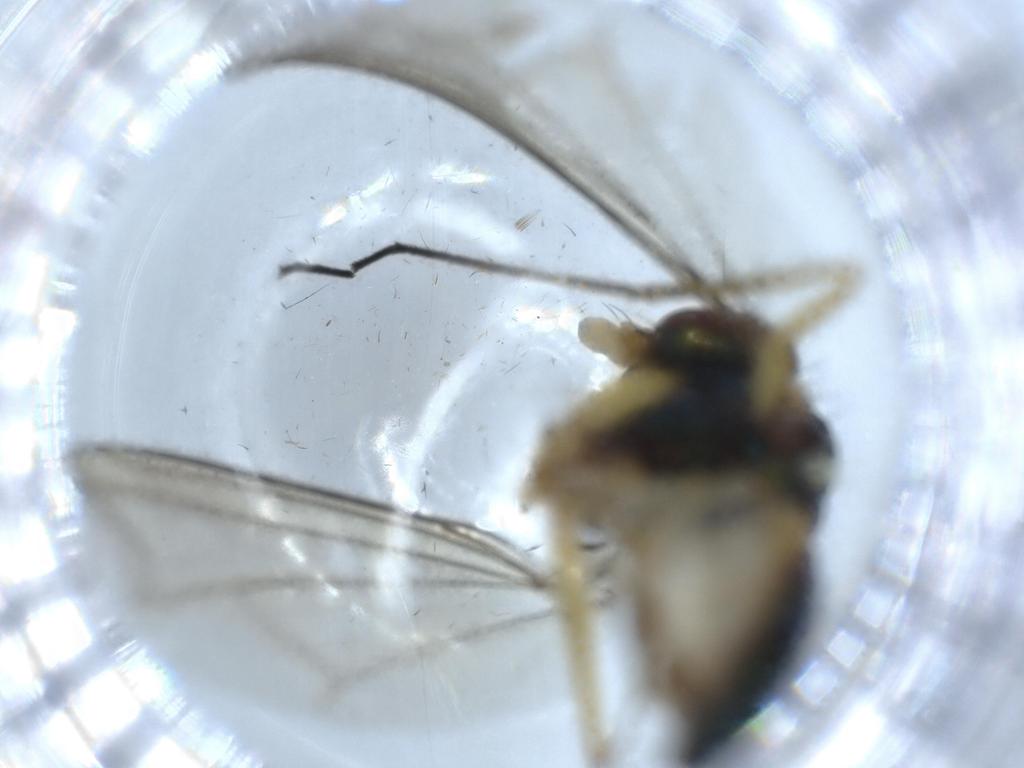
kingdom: Animalia
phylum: Arthropoda
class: Insecta
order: Diptera
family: Dolichopodidae
